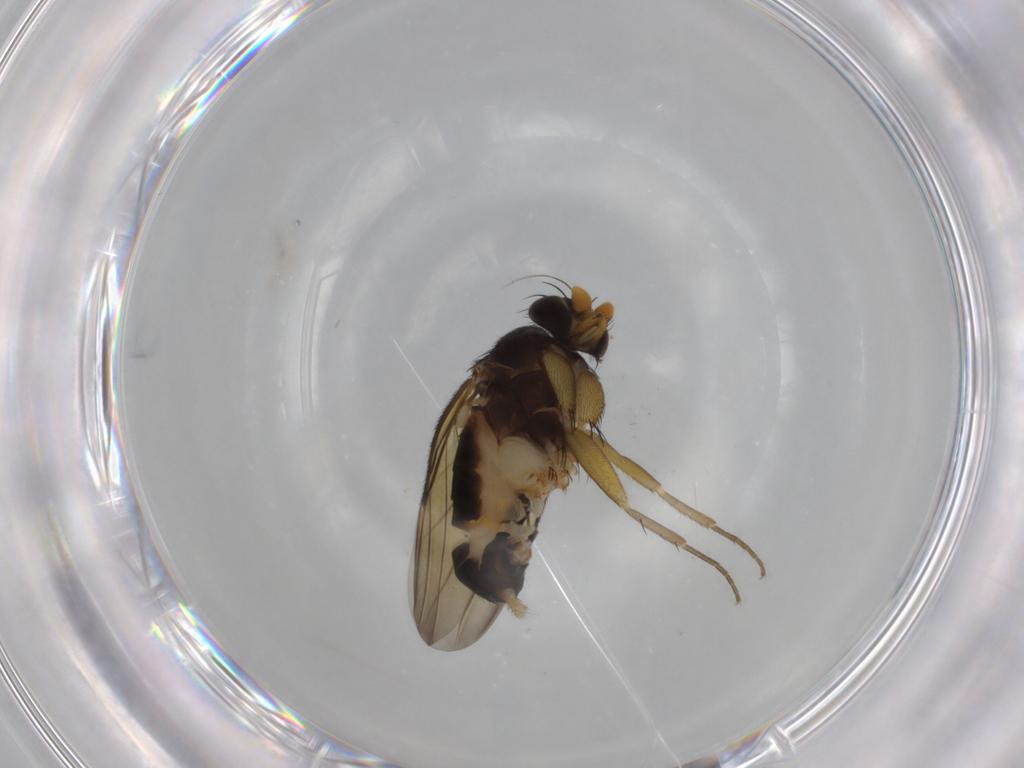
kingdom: Animalia
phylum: Arthropoda
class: Insecta
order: Diptera
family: Phoridae
